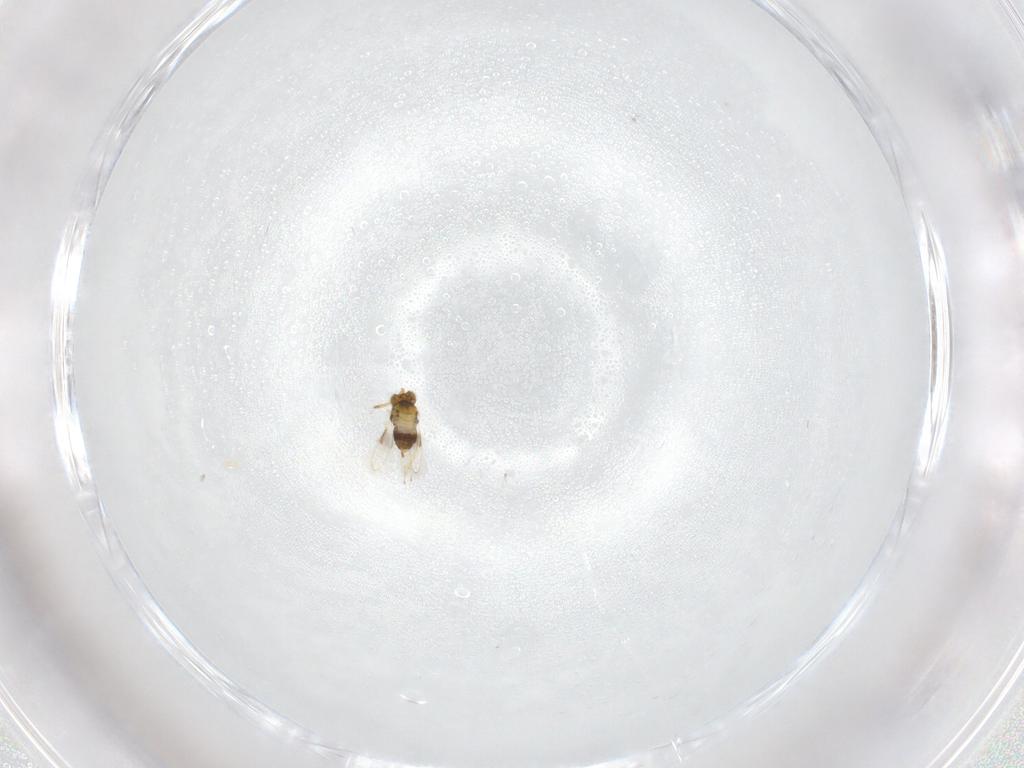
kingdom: Animalia
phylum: Arthropoda
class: Insecta
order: Hymenoptera
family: Aphelinidae
